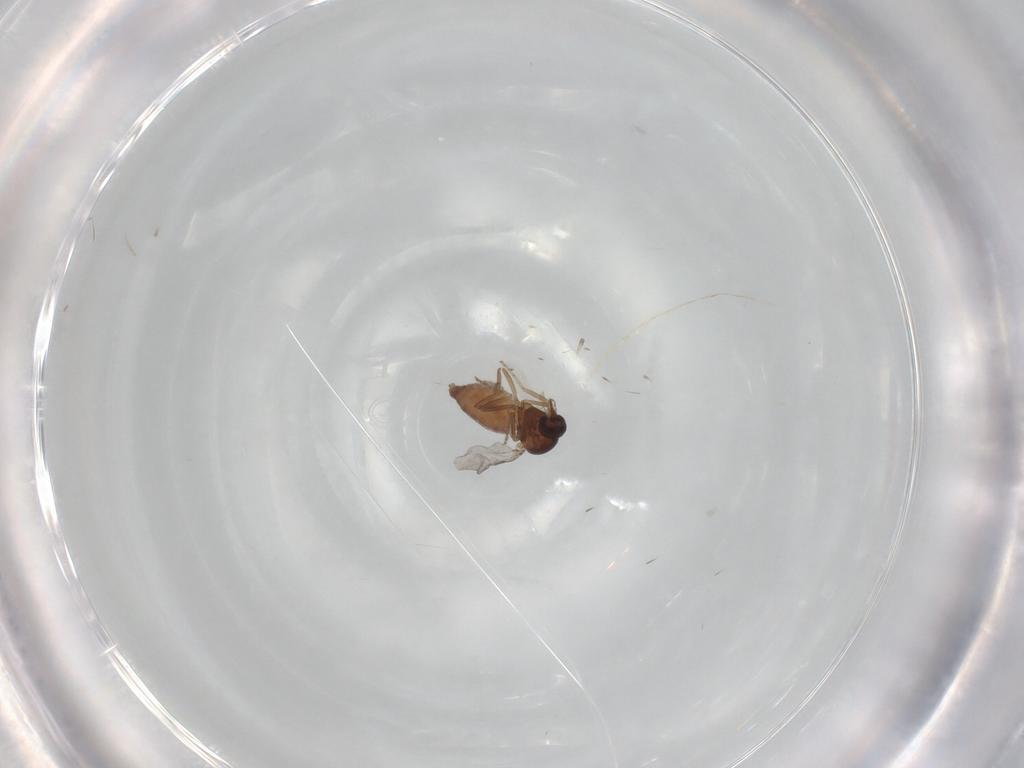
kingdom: Animalia
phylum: Arthropoda
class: Insecta
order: Diptera
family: Ceratopogonidae
